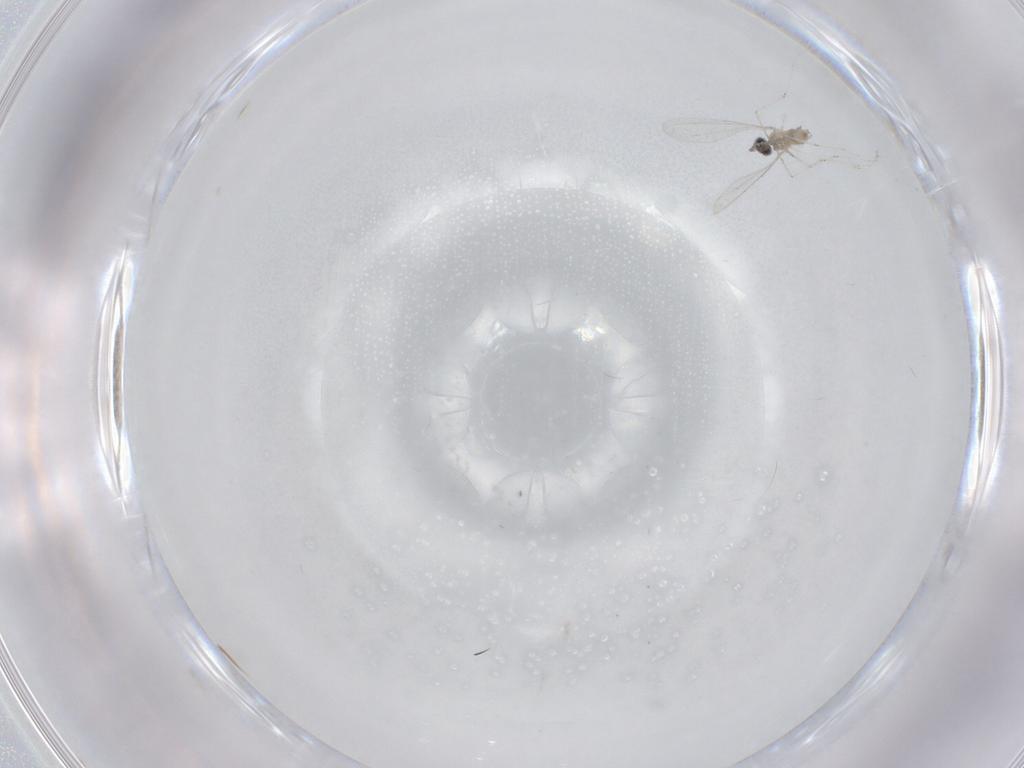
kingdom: Animalia
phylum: Arthropoda
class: Insecta
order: Diptera
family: Cecidomyiidae
